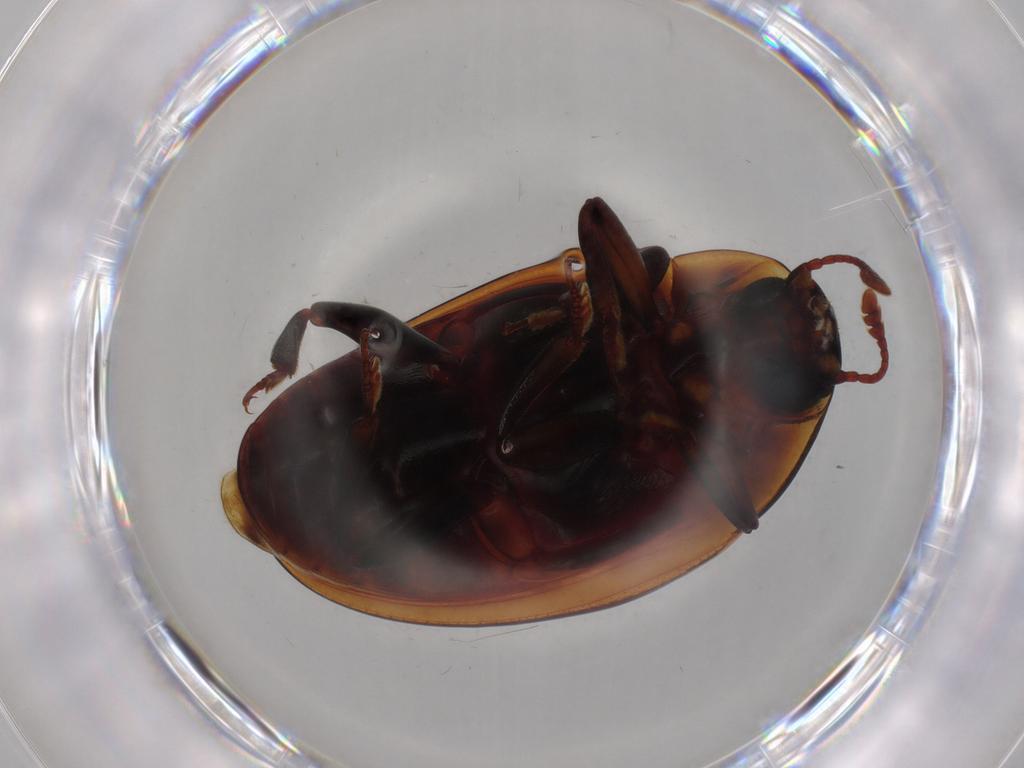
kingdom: Animalia
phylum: Arthropoda
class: Insecta
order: Coleoptera
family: Zopheridae
